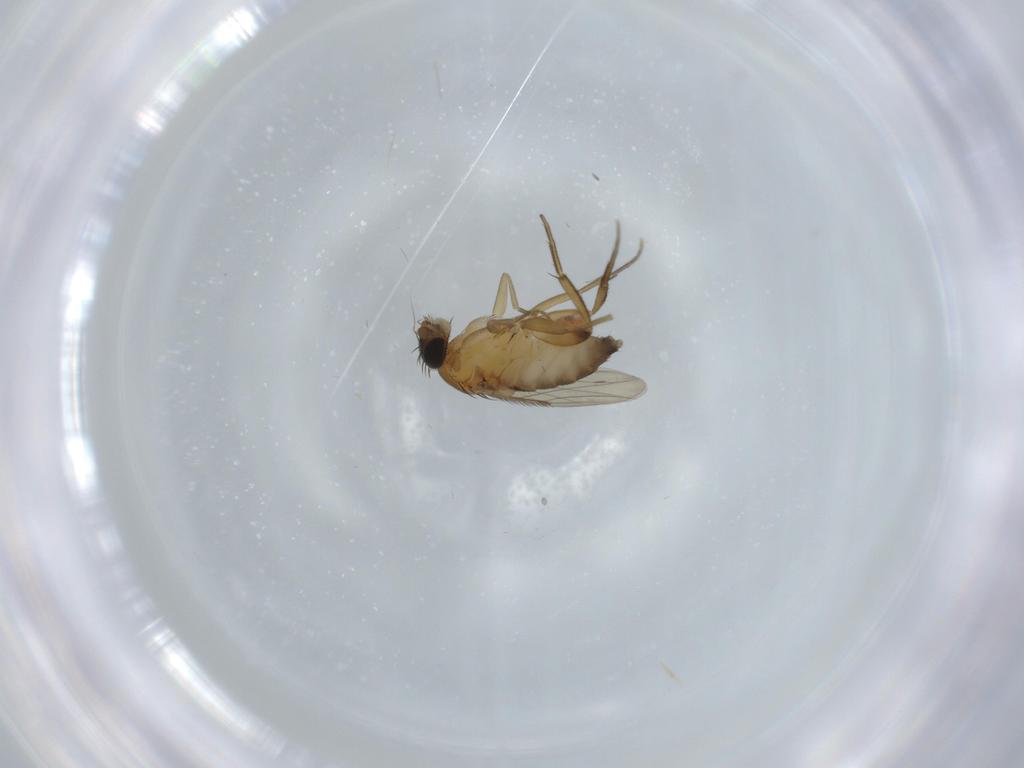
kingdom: Animalia
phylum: Arthropoda
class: Insecta
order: Diptera
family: Phoridae
